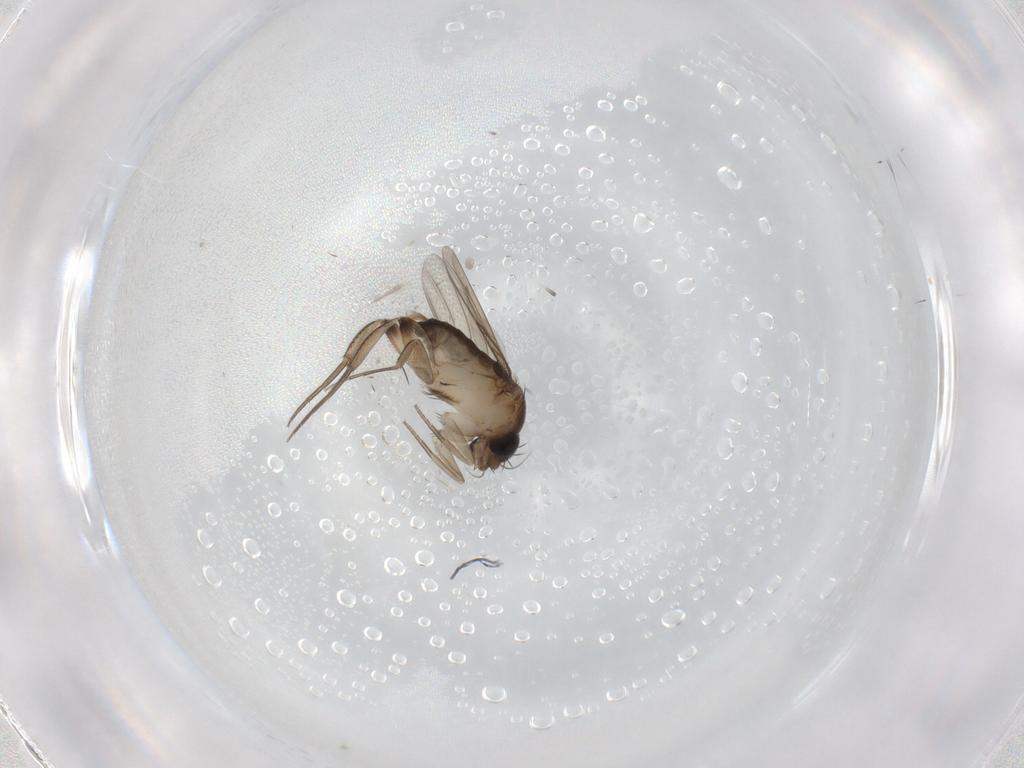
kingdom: Animalia
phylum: Arthropoda
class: Insecta
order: Diptera
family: Phoridae
